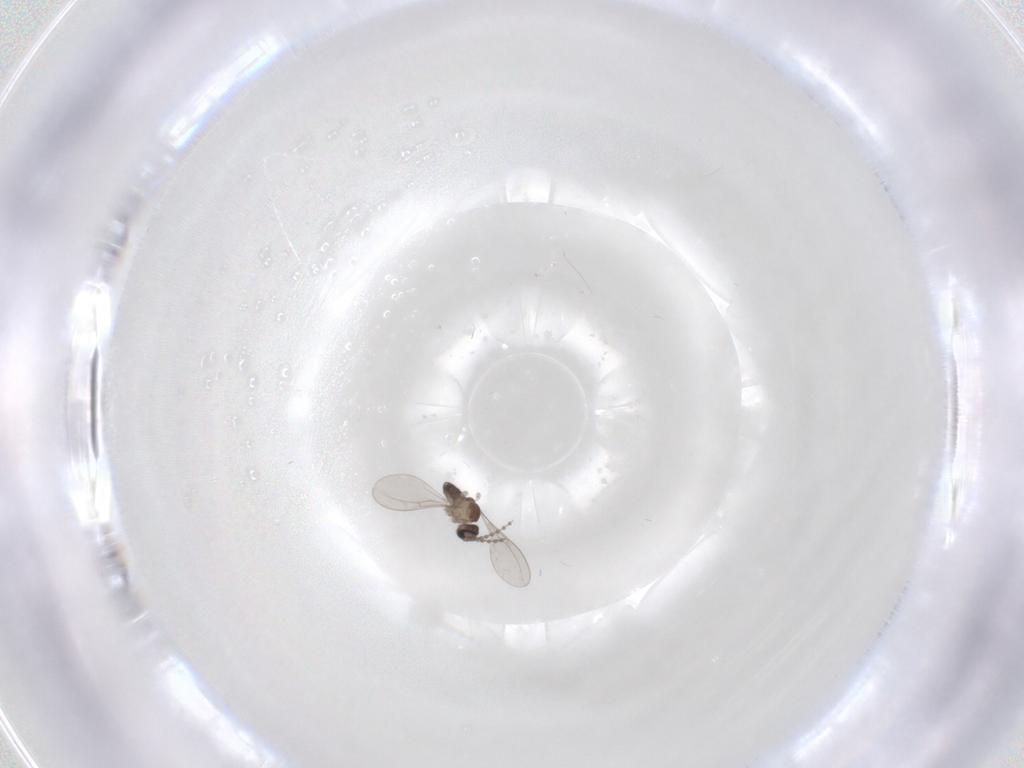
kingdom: Animalia
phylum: Arthropoda
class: Insecta
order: Diptera
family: Cecidomyiidae
